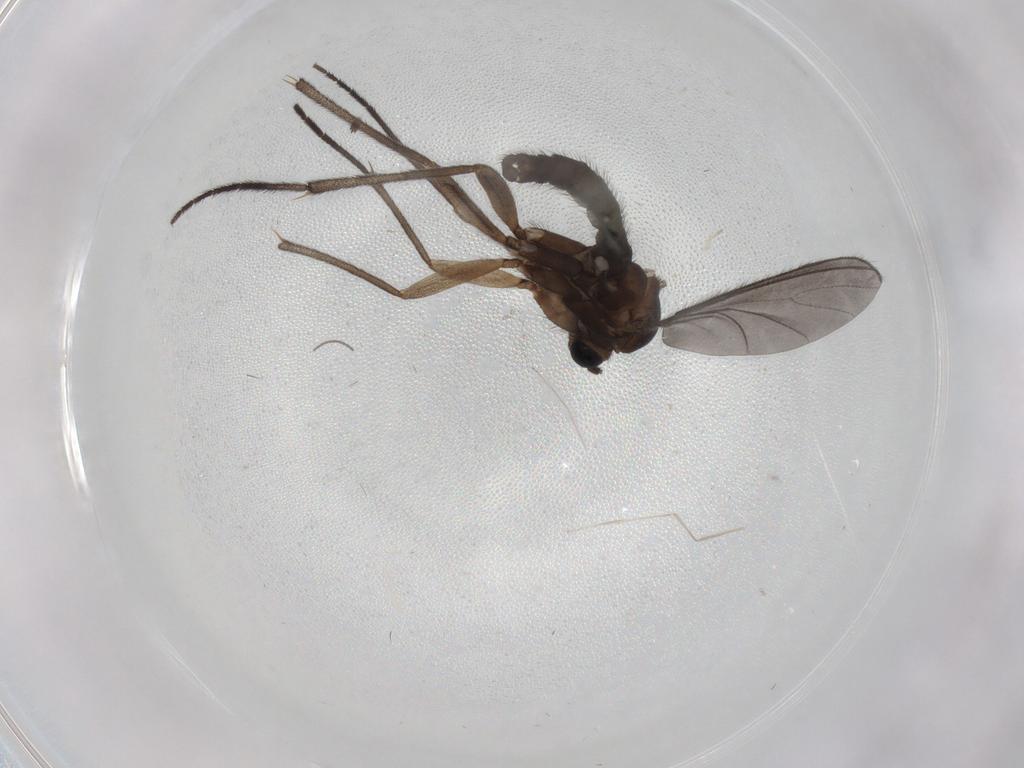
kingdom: Animalia
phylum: Arthropoda
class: Insecta
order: Diptera
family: Sciaridae
